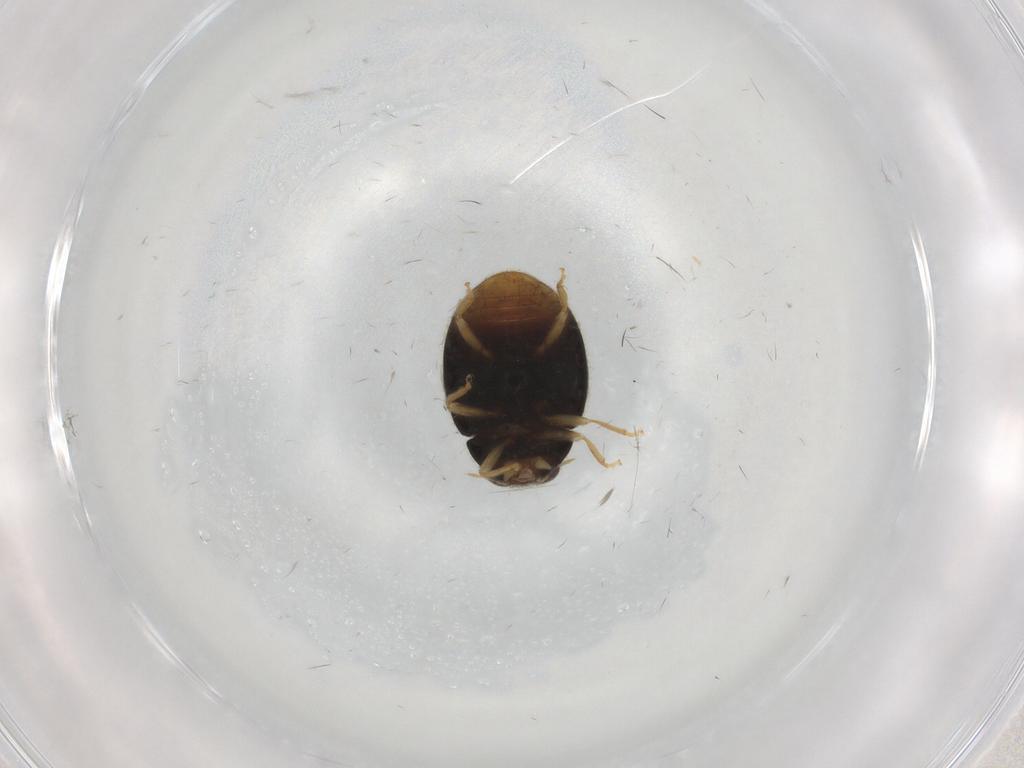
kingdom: Animalia
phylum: Arthropoda
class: Insecta
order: Coleoptera
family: Coccinellidae
